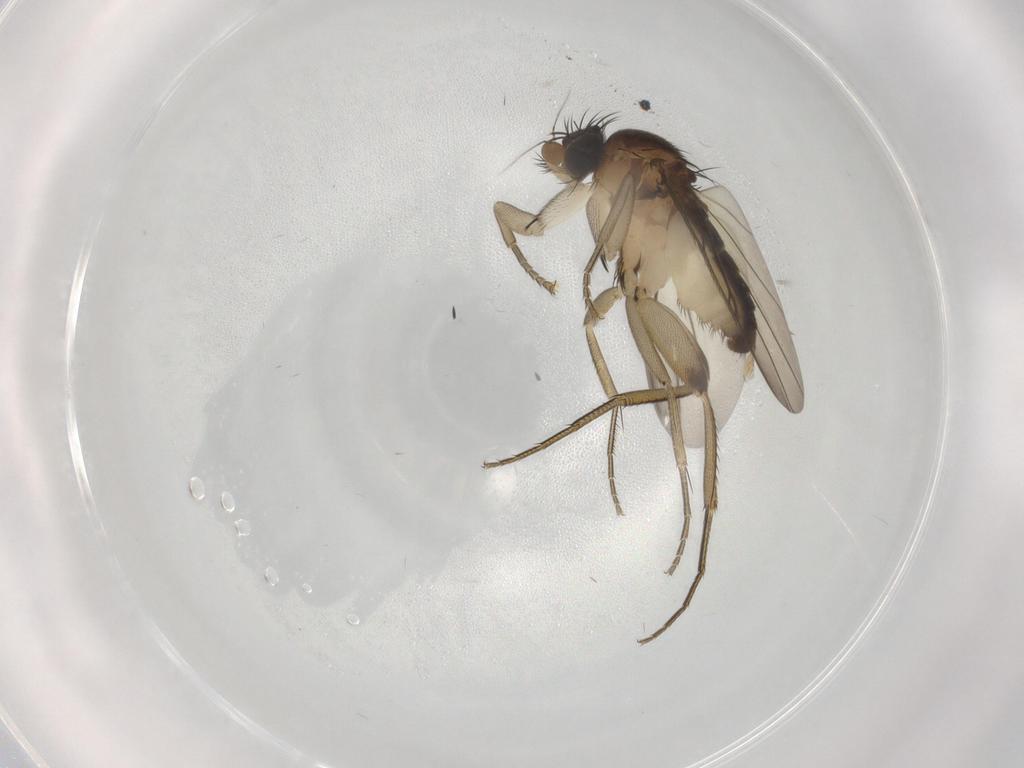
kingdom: Animalia
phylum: Arthropoda
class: Insecta
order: Diptera
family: Phoridae
